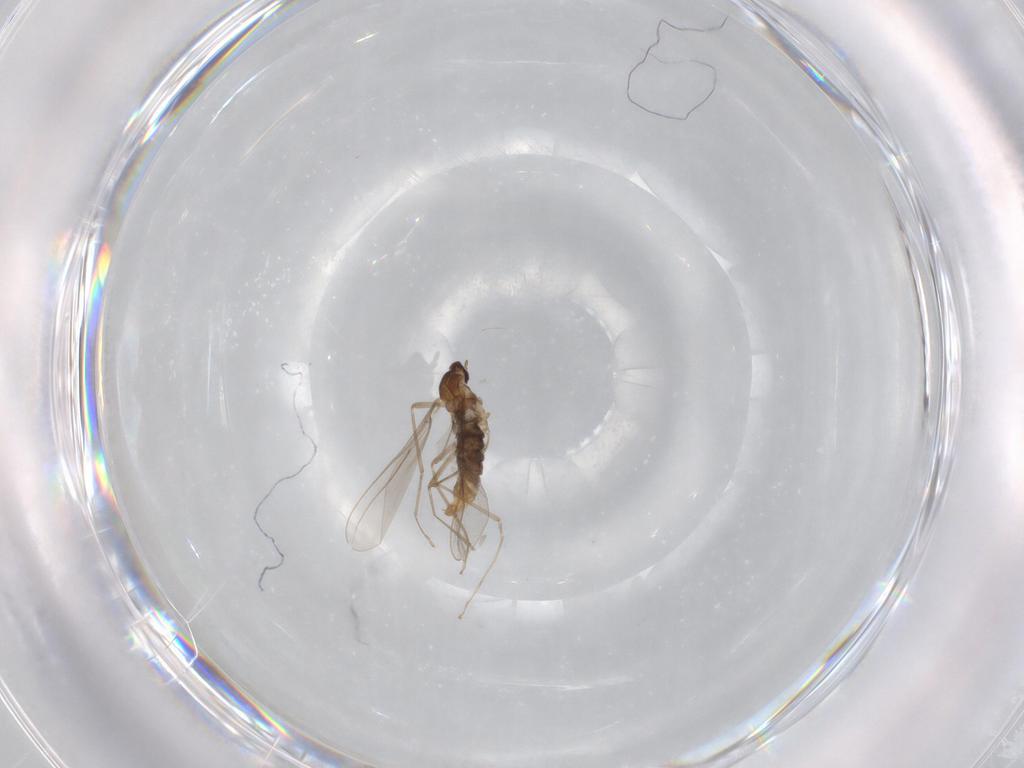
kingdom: Animalia
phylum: Arthropoda
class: Insecta
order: Diptera
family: Cecidomyiidae
